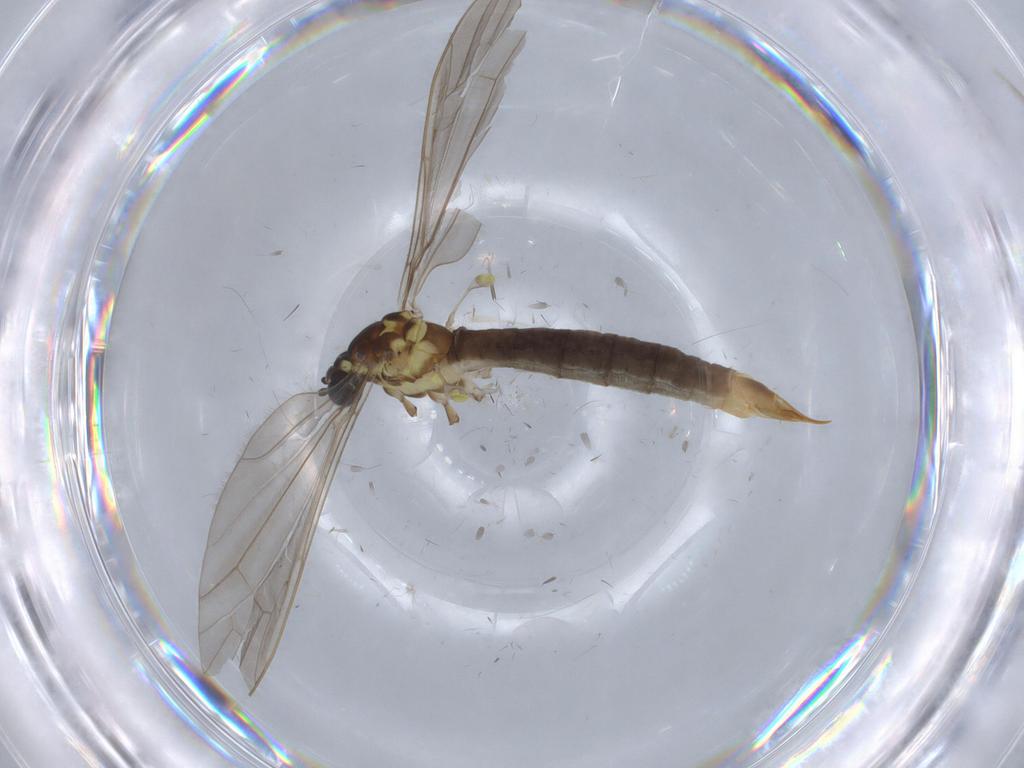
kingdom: Animalia
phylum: Arthropoda
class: Insecta
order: Diptera
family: Limoniidae
